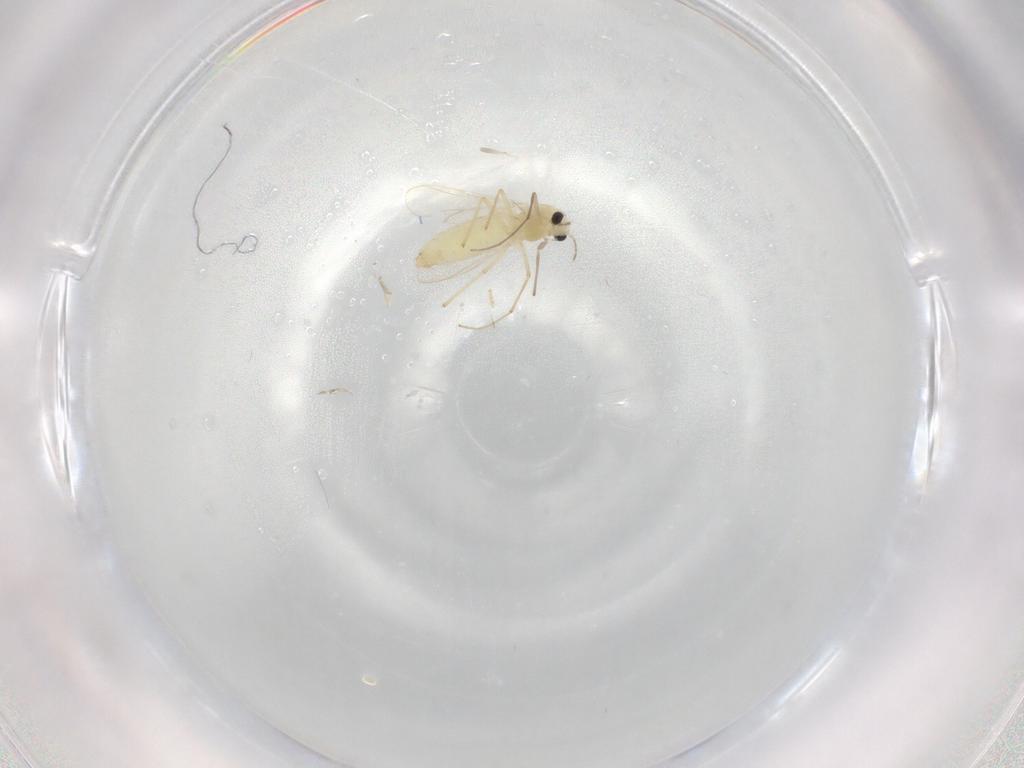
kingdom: Animalia
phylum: Arthropoda
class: Insecta
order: Diptera
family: Chironomidae
